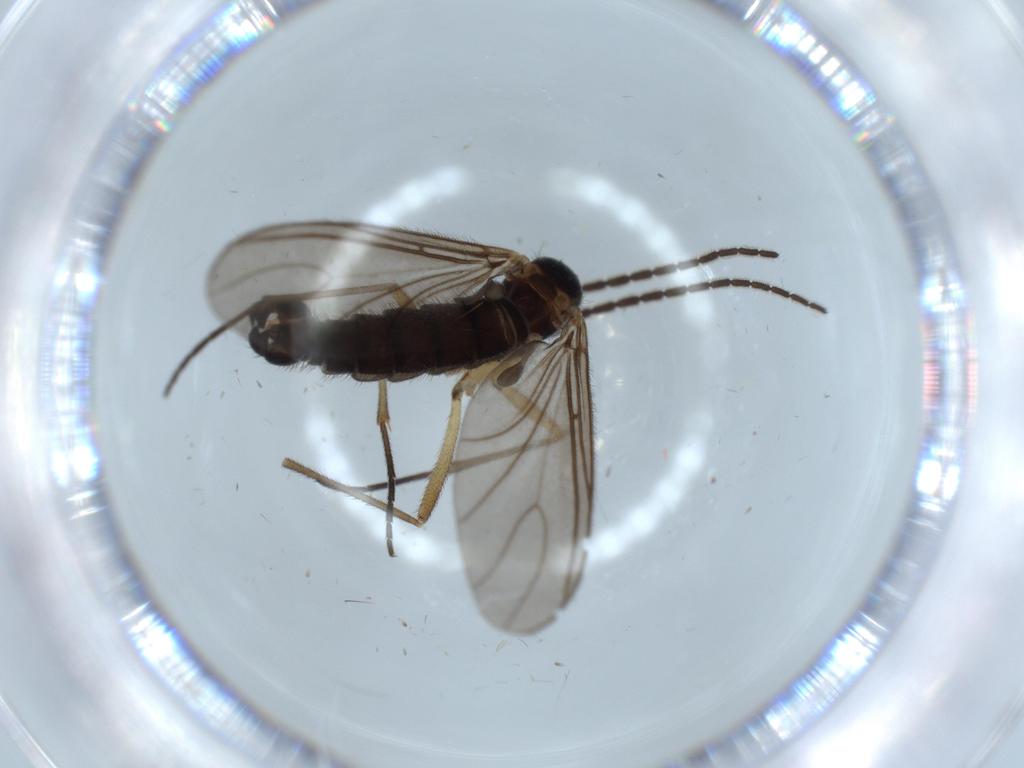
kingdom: Animalia
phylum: Arthropoda
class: Insecta
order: Diptera
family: Sciaridae
